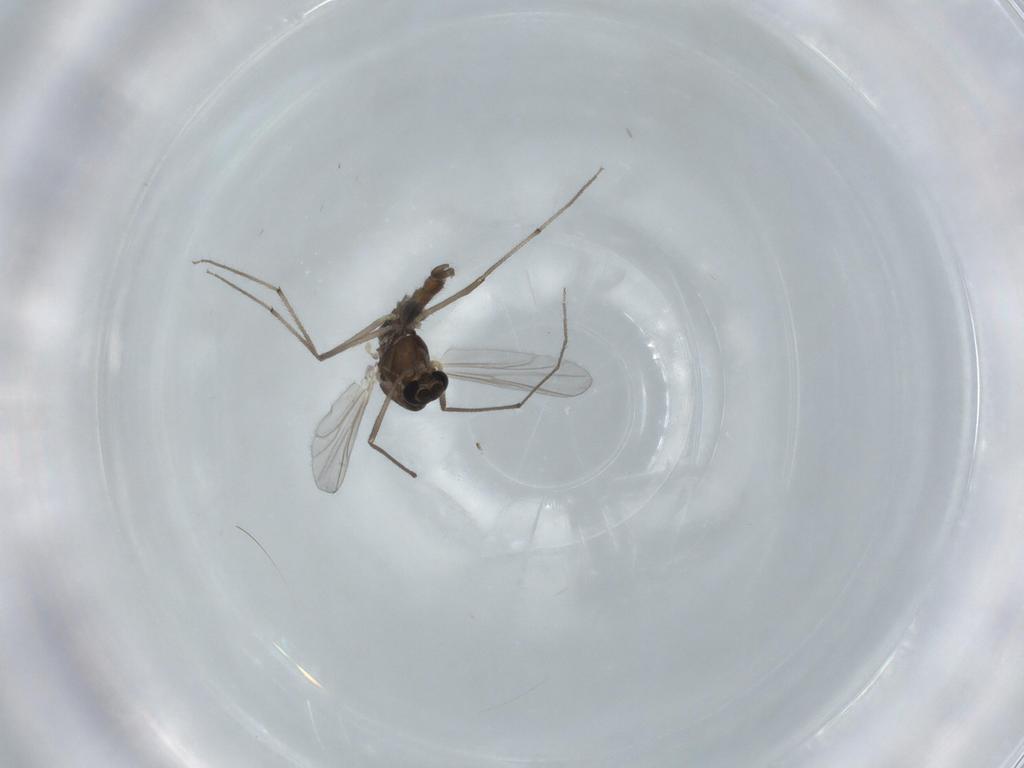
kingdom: Animalia
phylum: Arthropoda
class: Insecta
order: Diptera
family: Chironomidae
